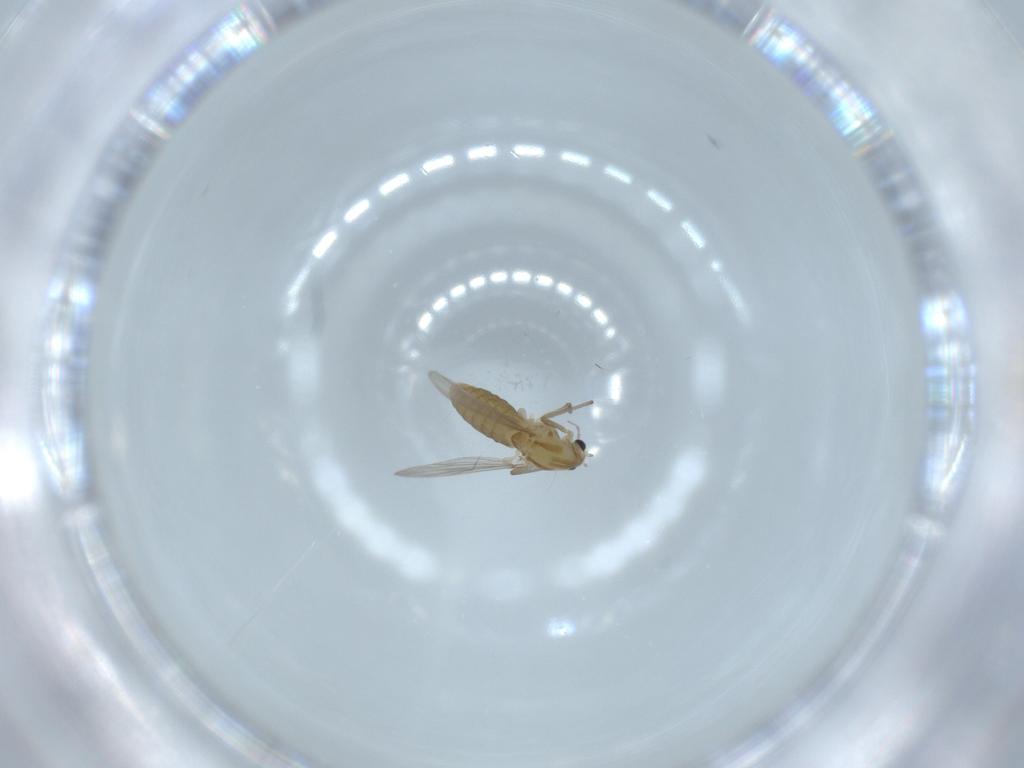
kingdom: Animalia
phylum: Arthropoda
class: Insecta
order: Diptera
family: Chironomidae
